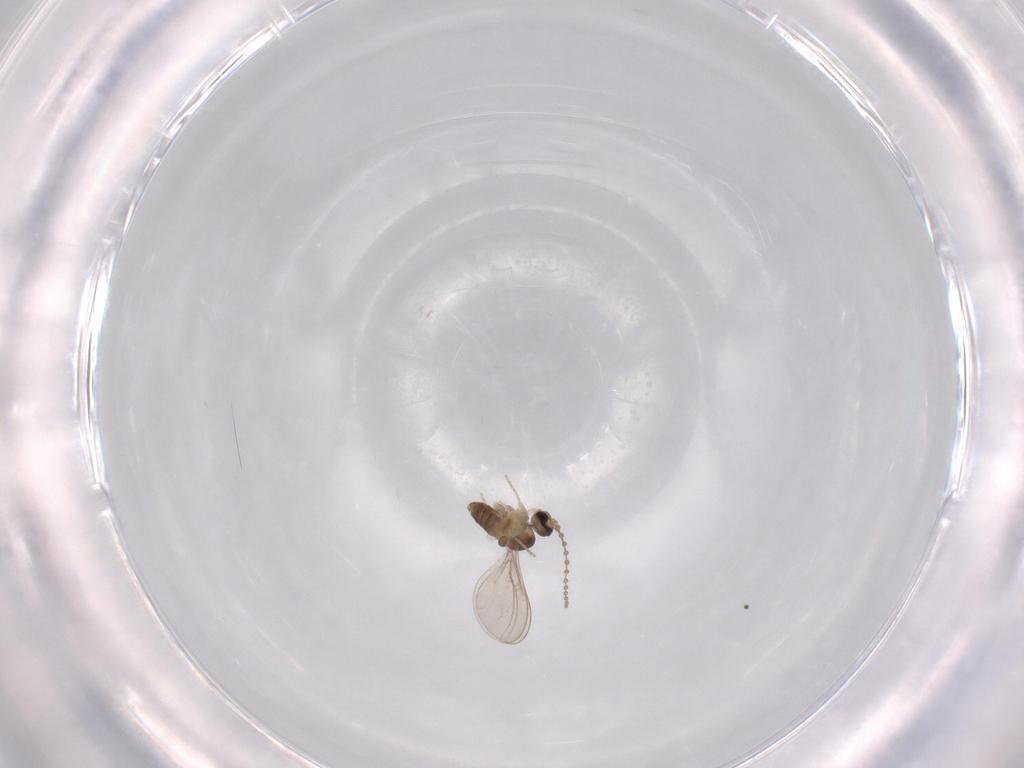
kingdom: Animalia
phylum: Arthropoda
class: Insecta
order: Diptera
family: Cecidomyiidae
